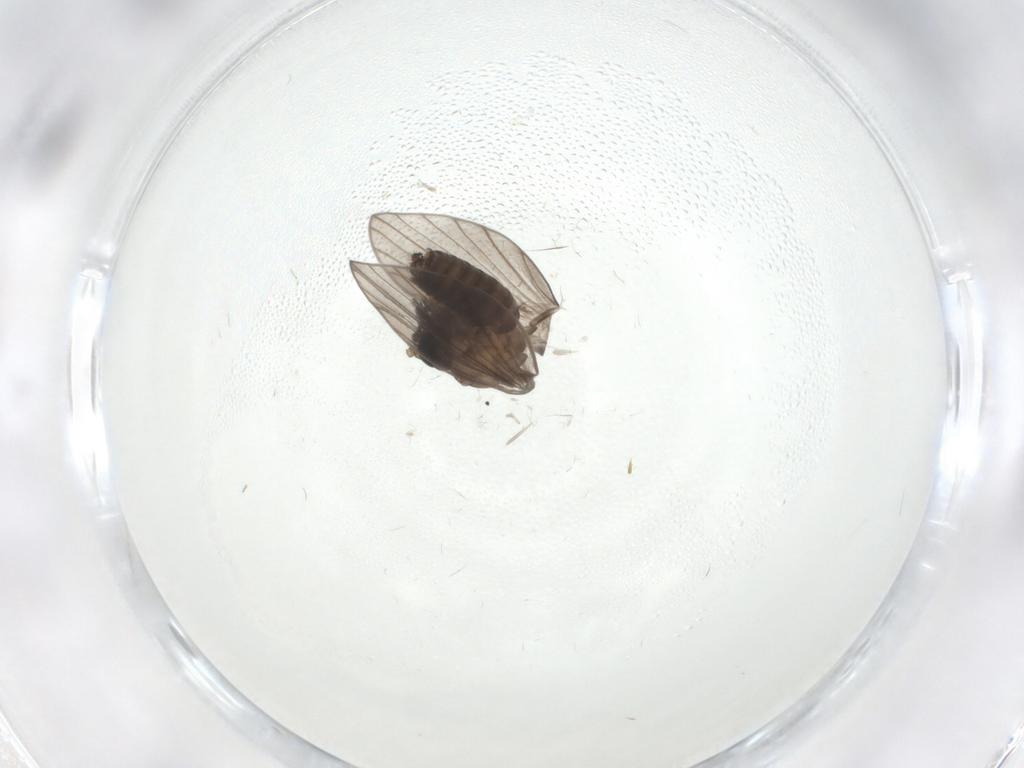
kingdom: Animalia
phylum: Arthropoda
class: Insecta
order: Diptera
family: Psychodidae
